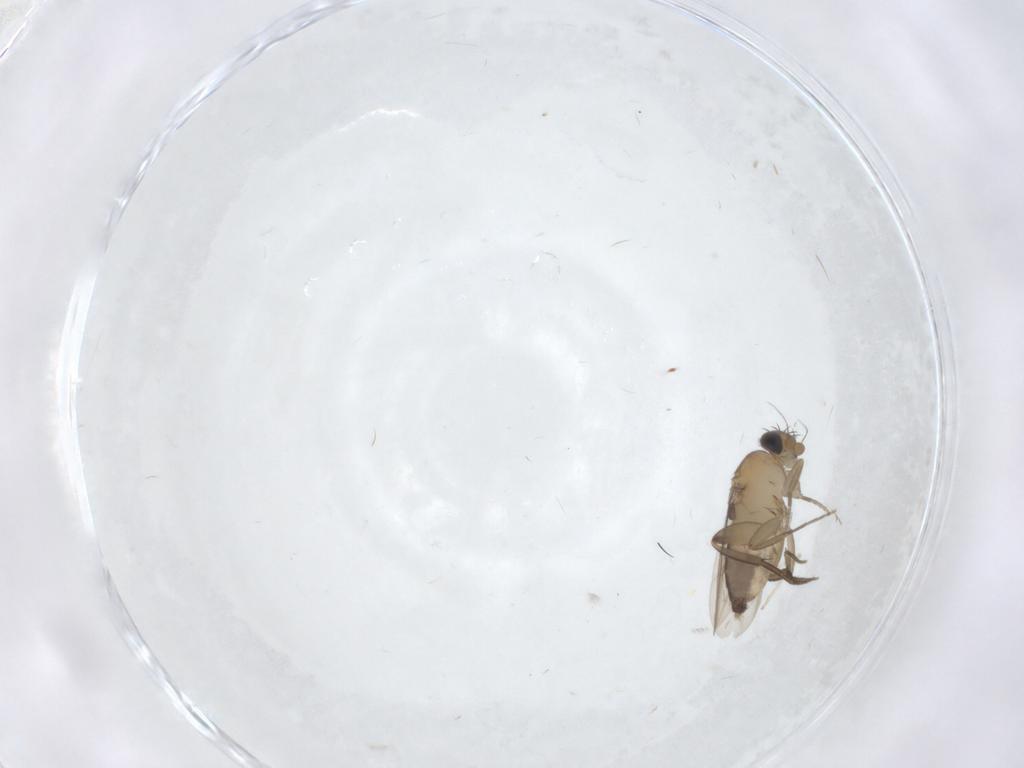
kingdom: Animalia
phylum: Arthropoda
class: Insecta
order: Diptera
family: Phoridae
